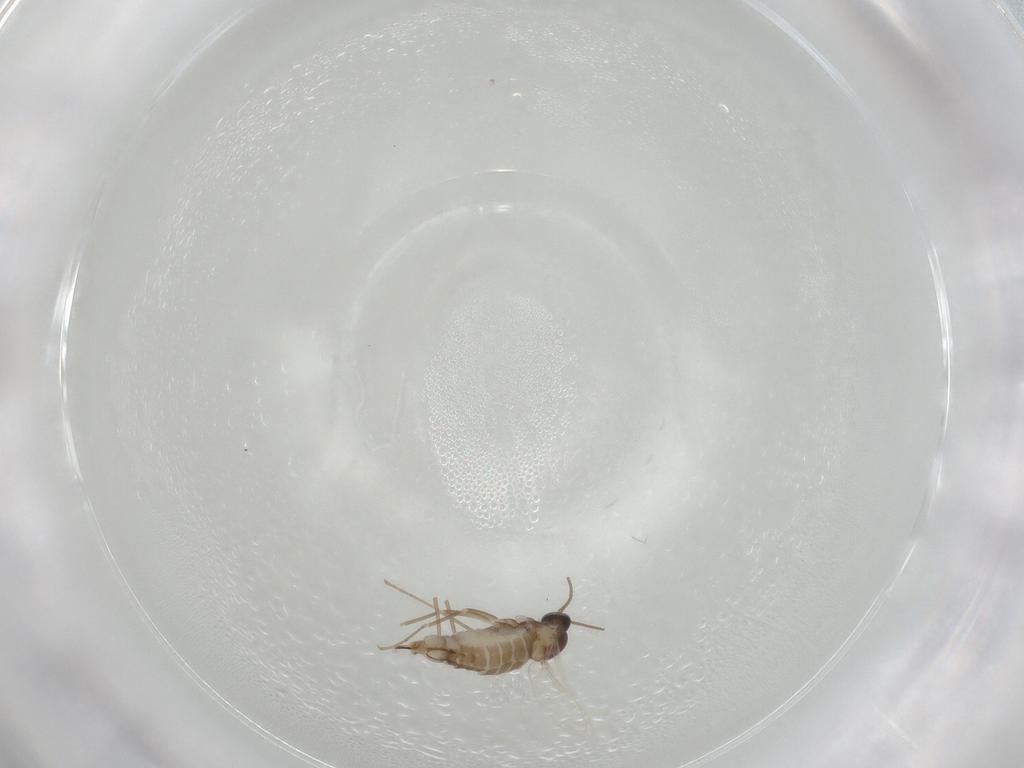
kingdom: Animalia
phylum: Arthropoda
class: Insecta
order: Diptera
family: Cecidomyiidae
